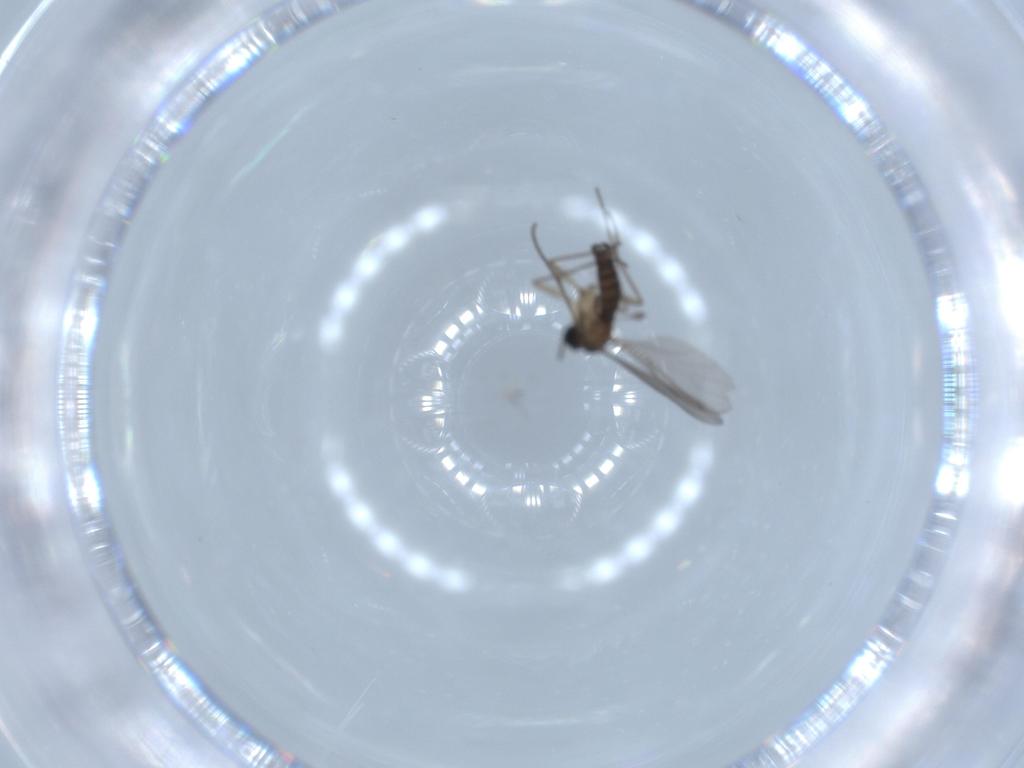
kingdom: Animalia
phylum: Arthropoda
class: Insecta
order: Diptera
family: Sciaridae
